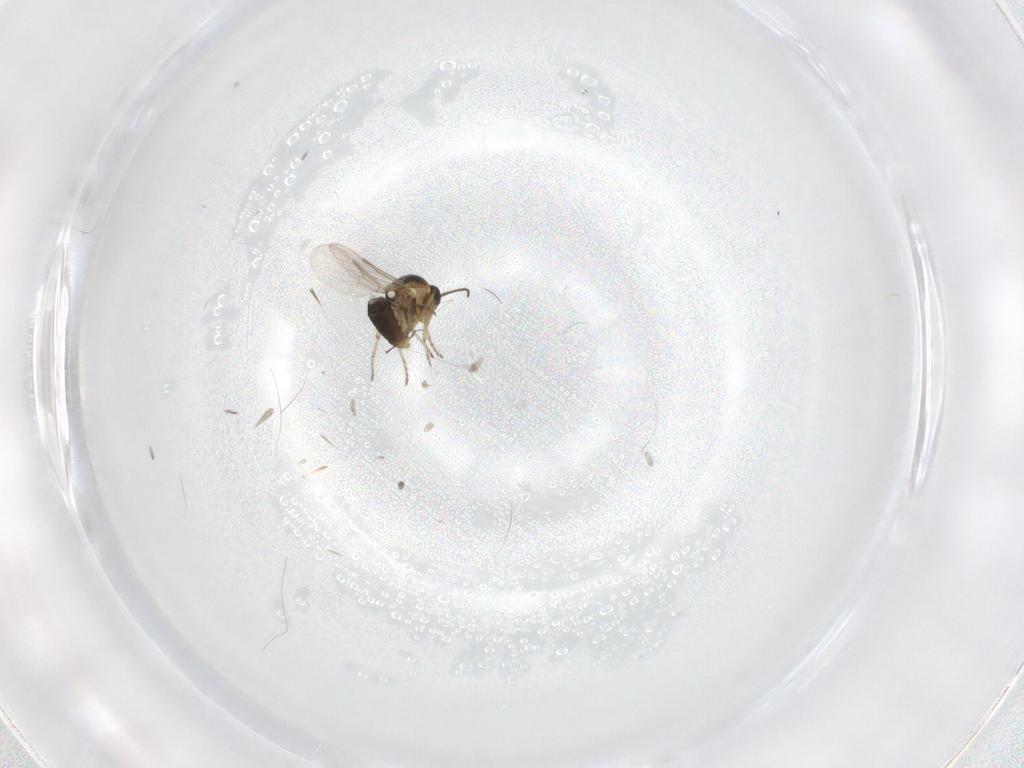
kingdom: Animalia
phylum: Arthropoda
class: Insecta
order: Diptera
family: Ceratopogonidae
